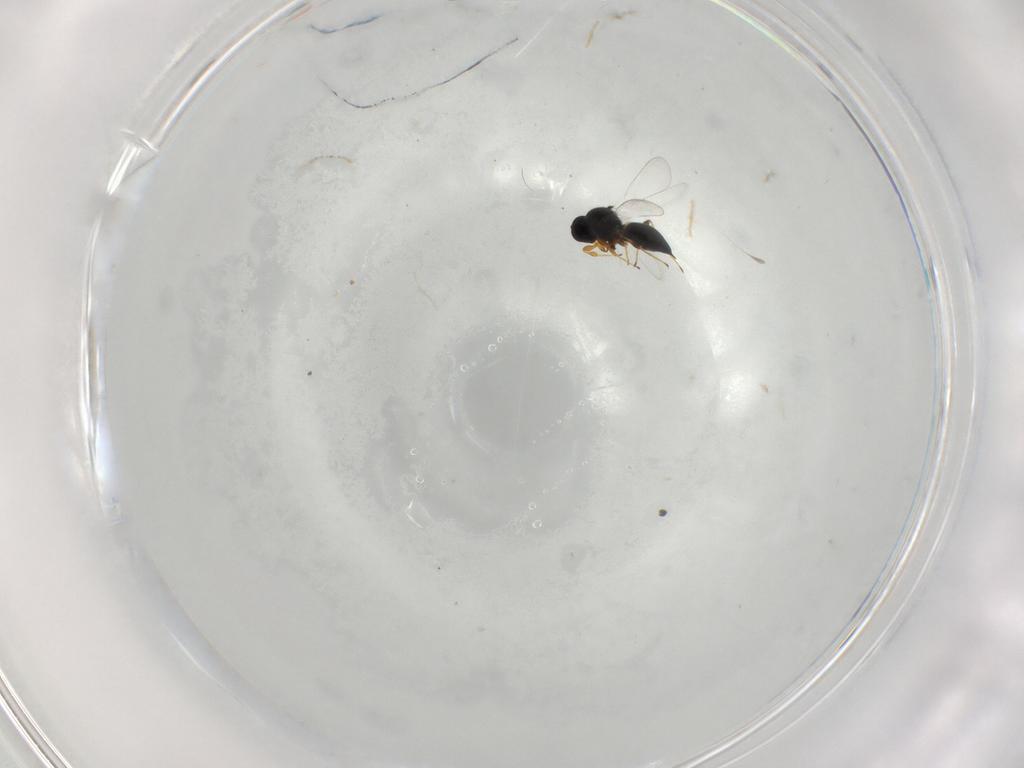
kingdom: Animalia
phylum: Arthropoda
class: Insecta
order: Hymenoptera
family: Platygastridae
